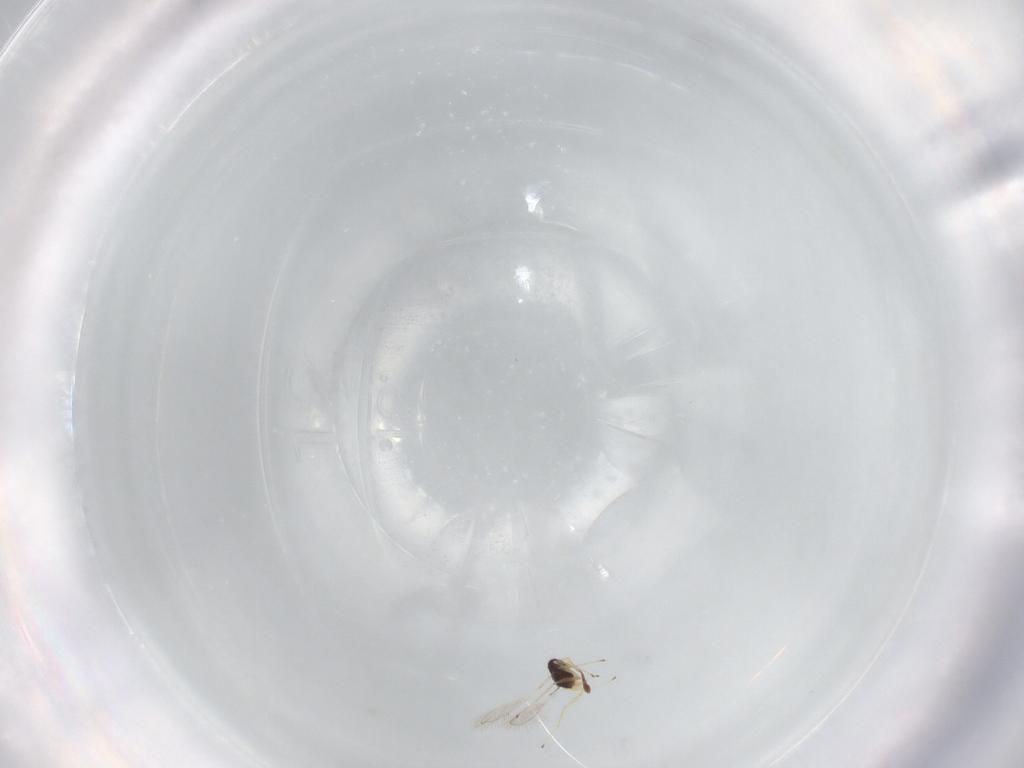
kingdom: Animalia
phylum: Arthropoda
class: Insecta
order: Hymenoptera
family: Mymaridae
